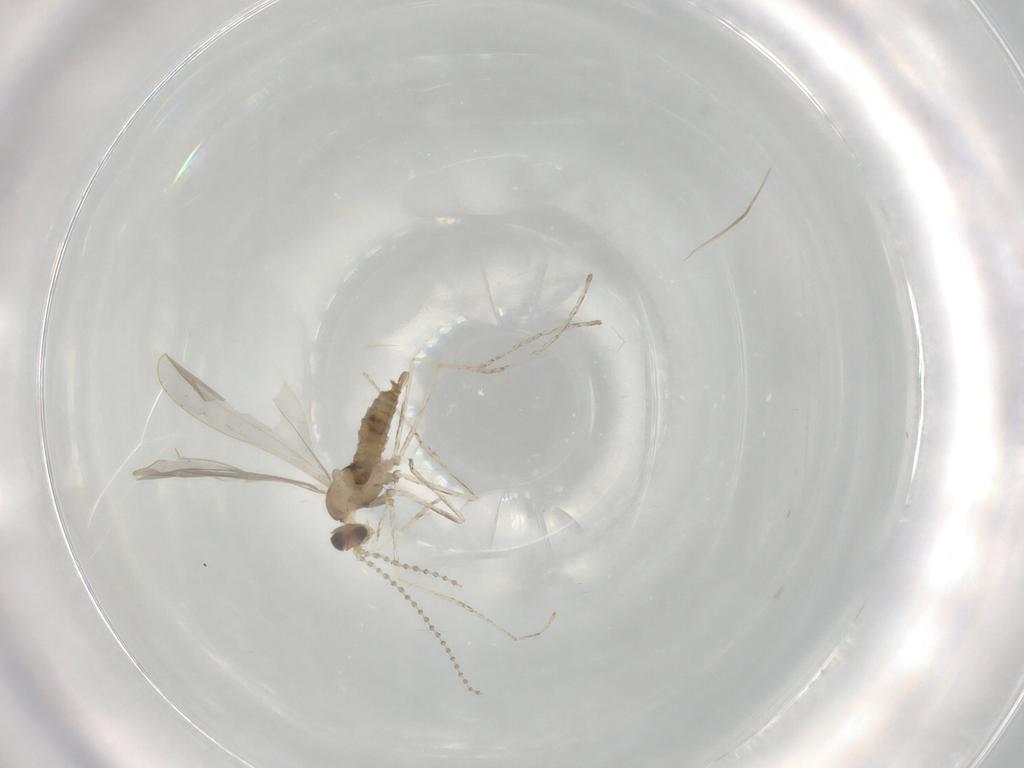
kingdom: Animalia
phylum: Arthropoda
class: Insecta
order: Diptera
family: Cecidomyiidae
